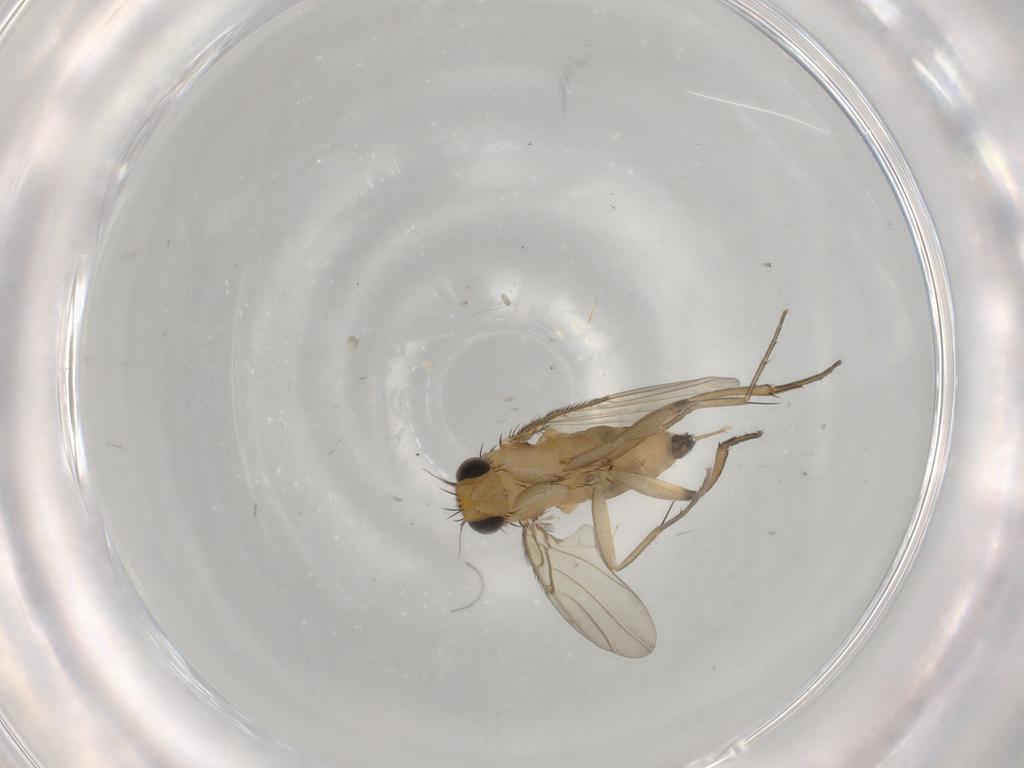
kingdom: Animalia
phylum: Arthropoda
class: Insecta
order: Diptera
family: Phoridae
